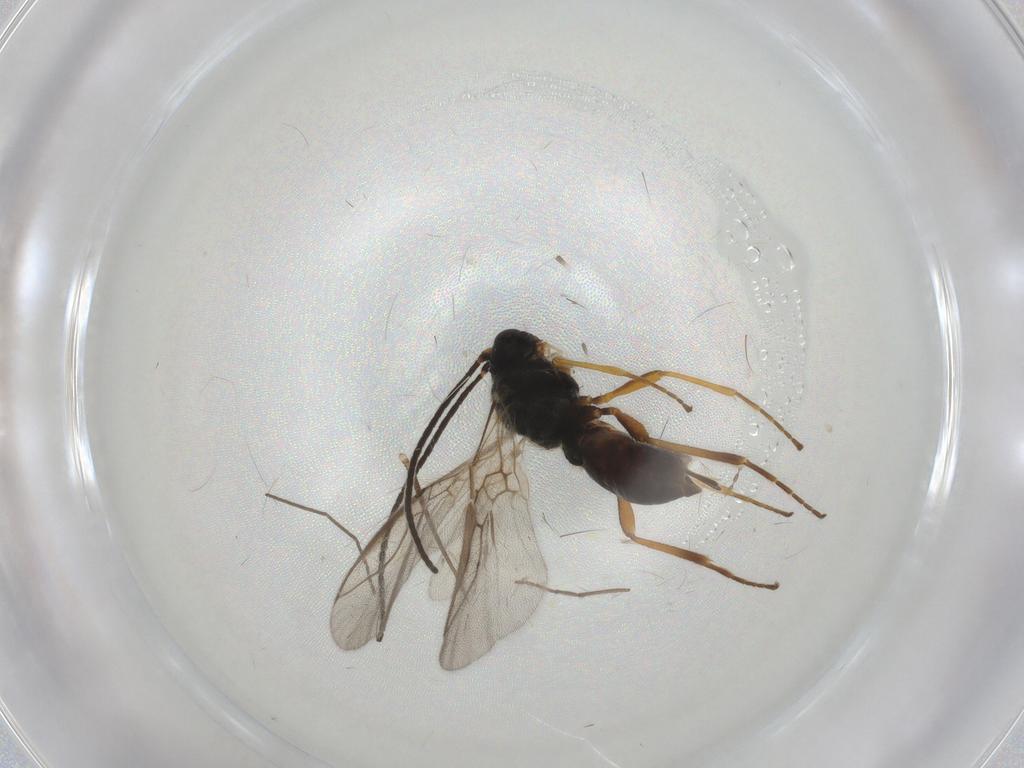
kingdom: Animalia
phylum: Arthropoda
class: Insecta
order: Hymenoptera
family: Braconidae
